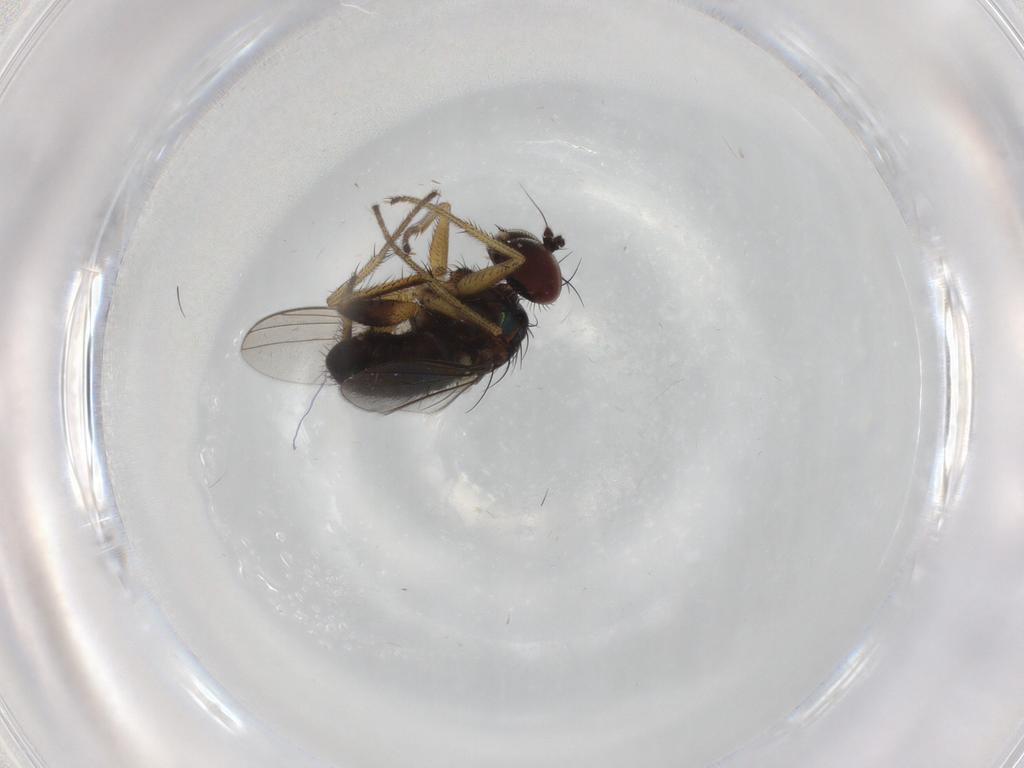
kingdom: Animalia
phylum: Arthropoda
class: Insecta
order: Diptera
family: Dolichopodidae
